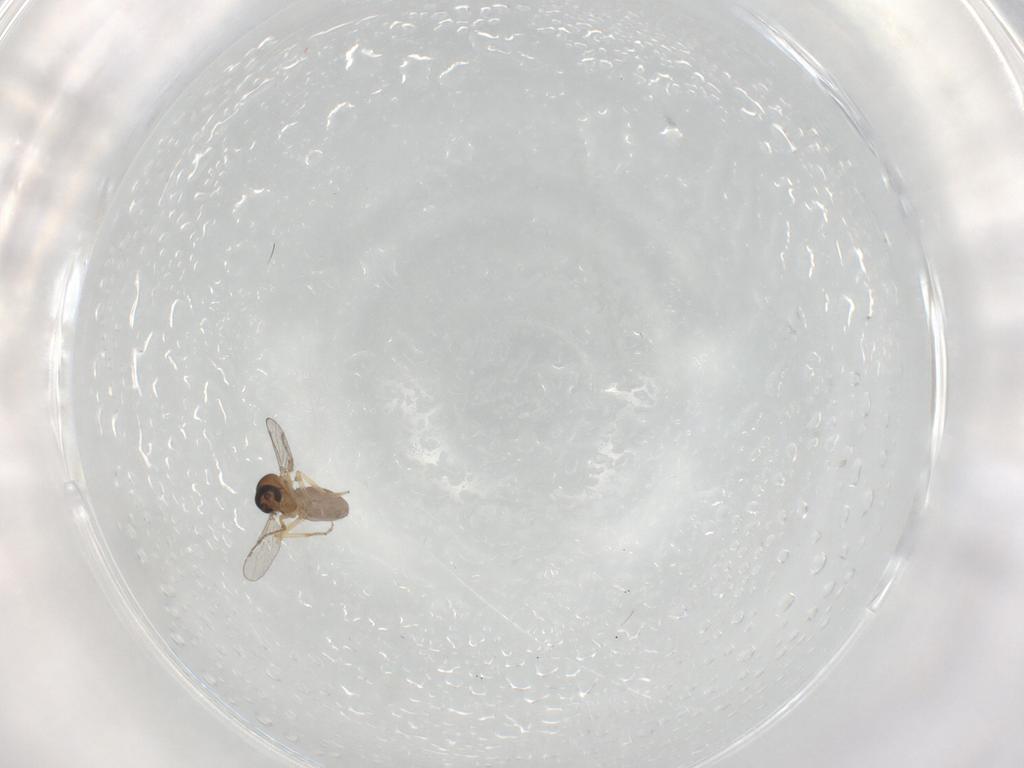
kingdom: Animalia
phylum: Arthropoda
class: Insecta
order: Diptera
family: Ceratopogonidae
